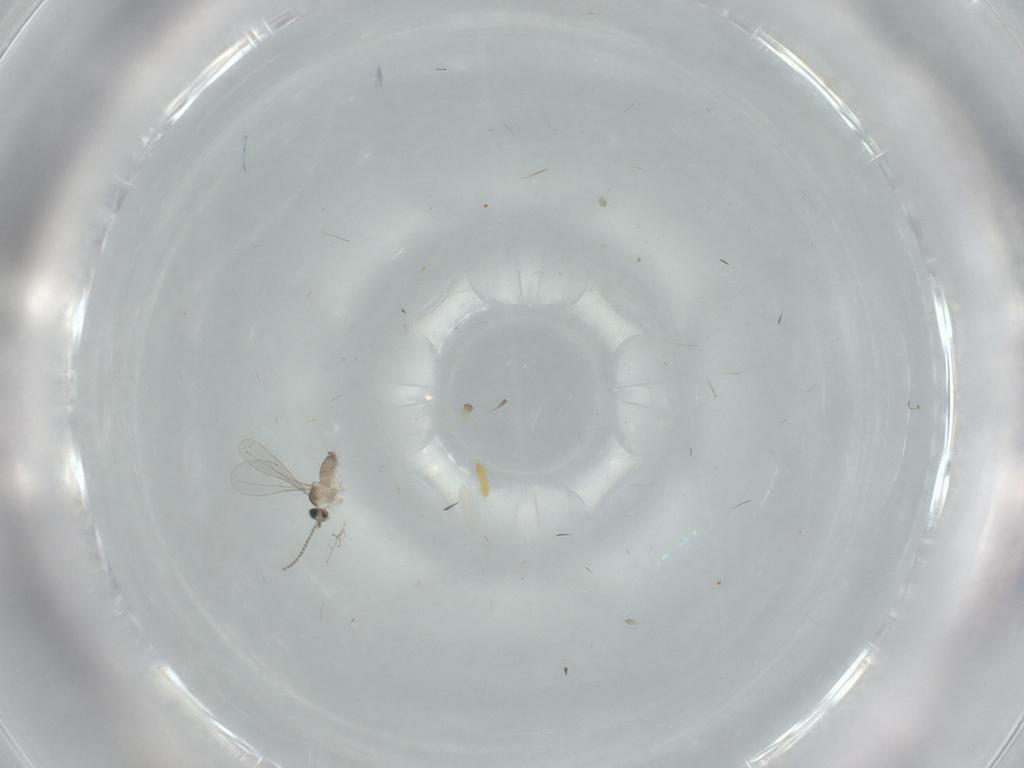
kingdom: Animalia
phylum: Arthropoda
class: Insecta
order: Diptera
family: Cecidomyiidae
